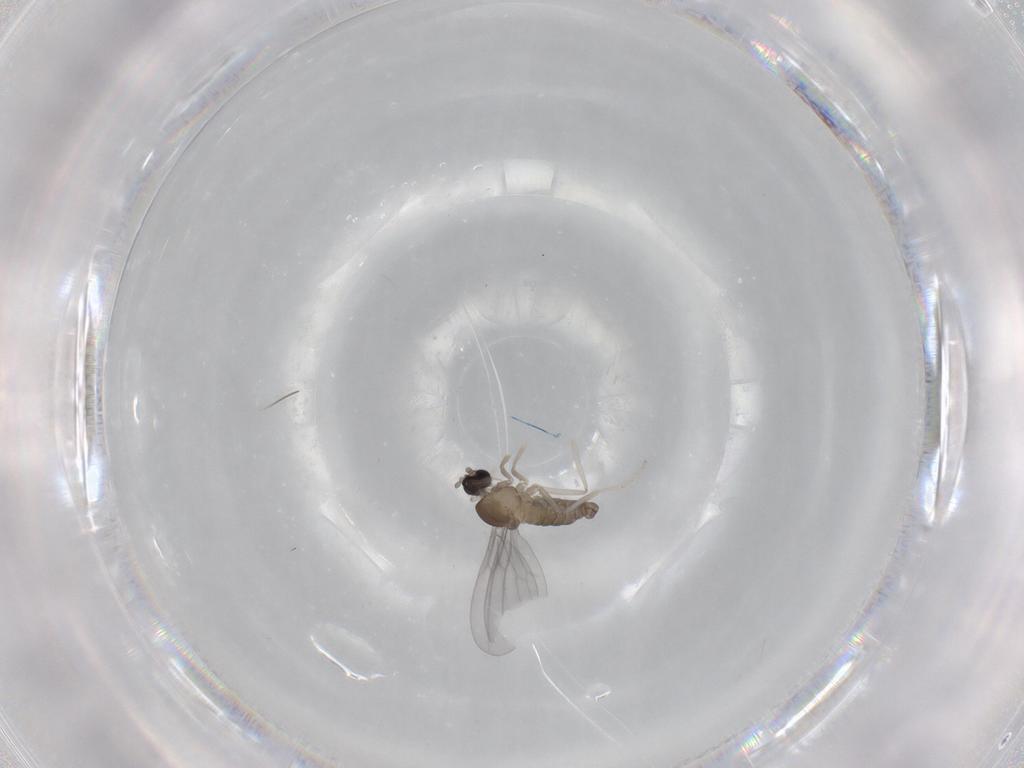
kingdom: Animalia
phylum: Arthropoda
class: Insecta
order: Diptera
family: Cecidomyiidae
